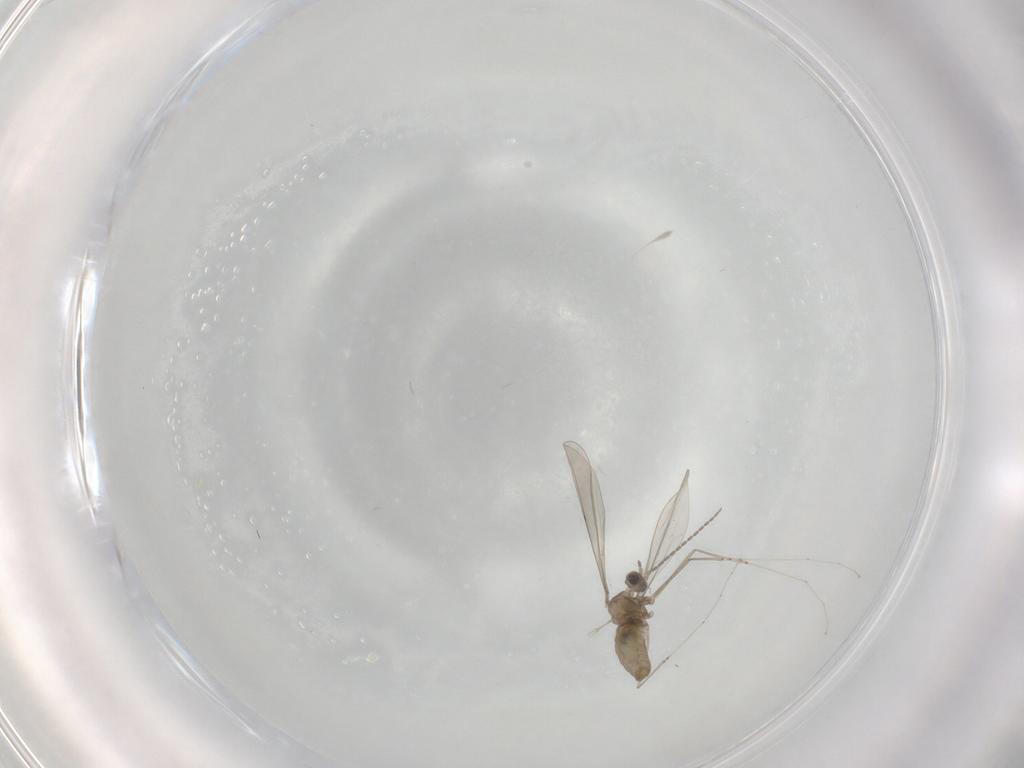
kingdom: Animalia
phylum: Arthropoda
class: Insecta
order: Diptera
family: Cecidomyiidae
